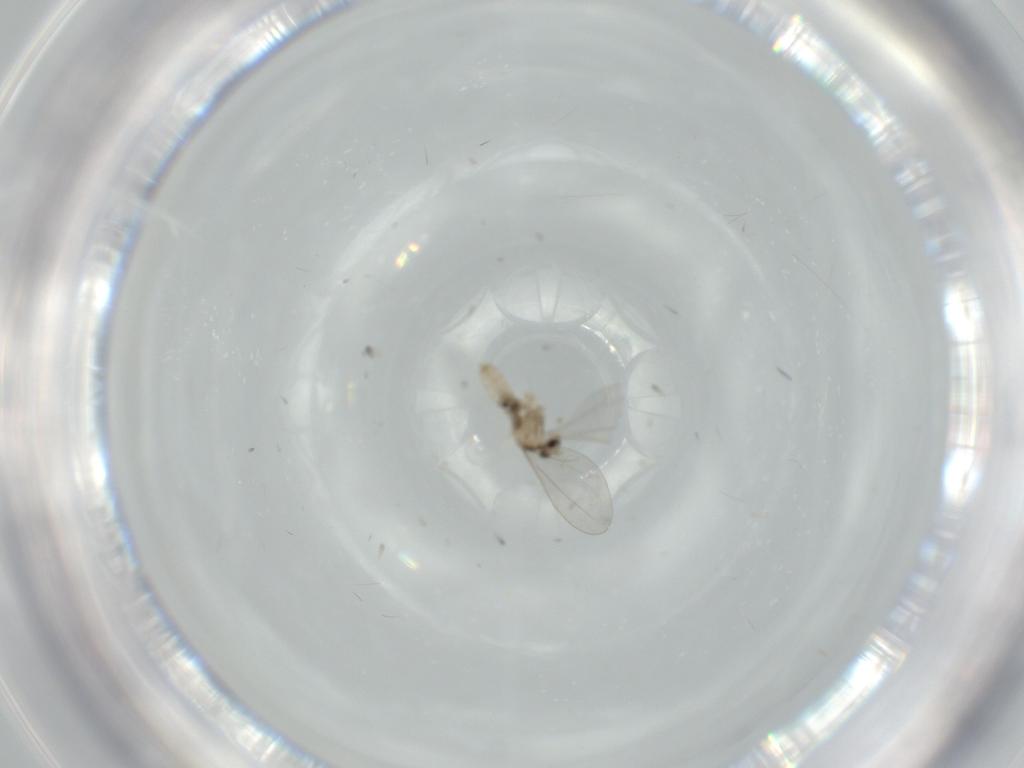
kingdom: Animalia
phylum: Arthropoda
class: Insecta
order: Diptera
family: Cecidomyiidae
